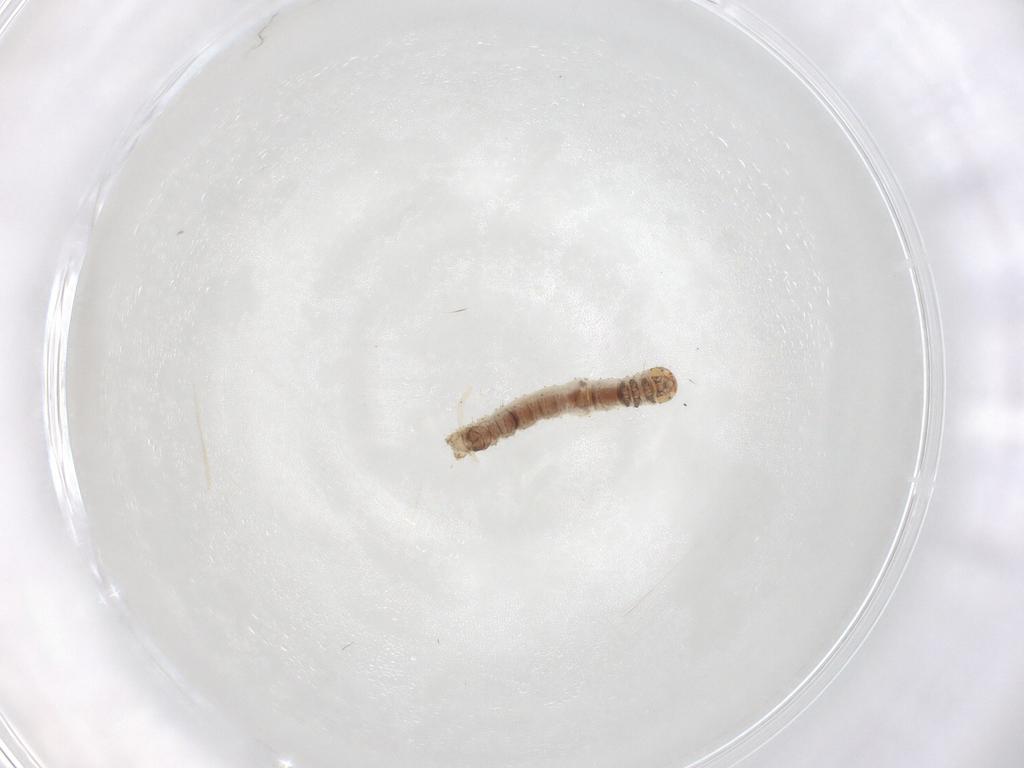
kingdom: Animalia
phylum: Arthropoda
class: Insecta
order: Lepidoptera
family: Geometridae
